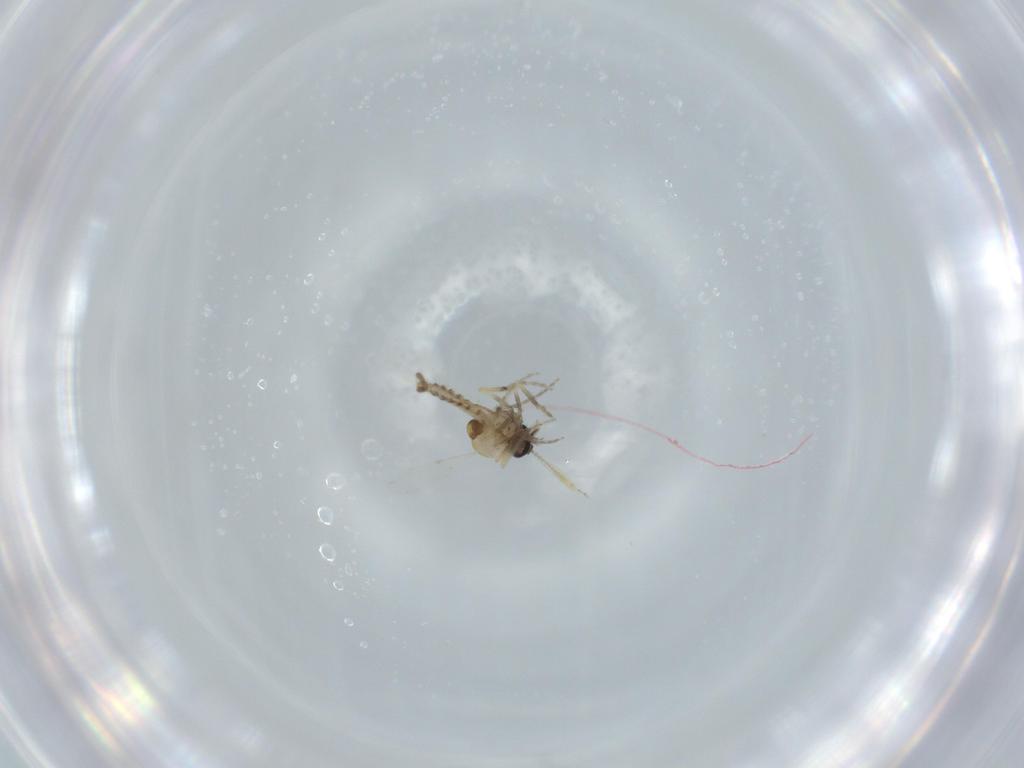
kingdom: Animalia
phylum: Arthropoda
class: Insecta
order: Diptera
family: Ceratopogonidae
